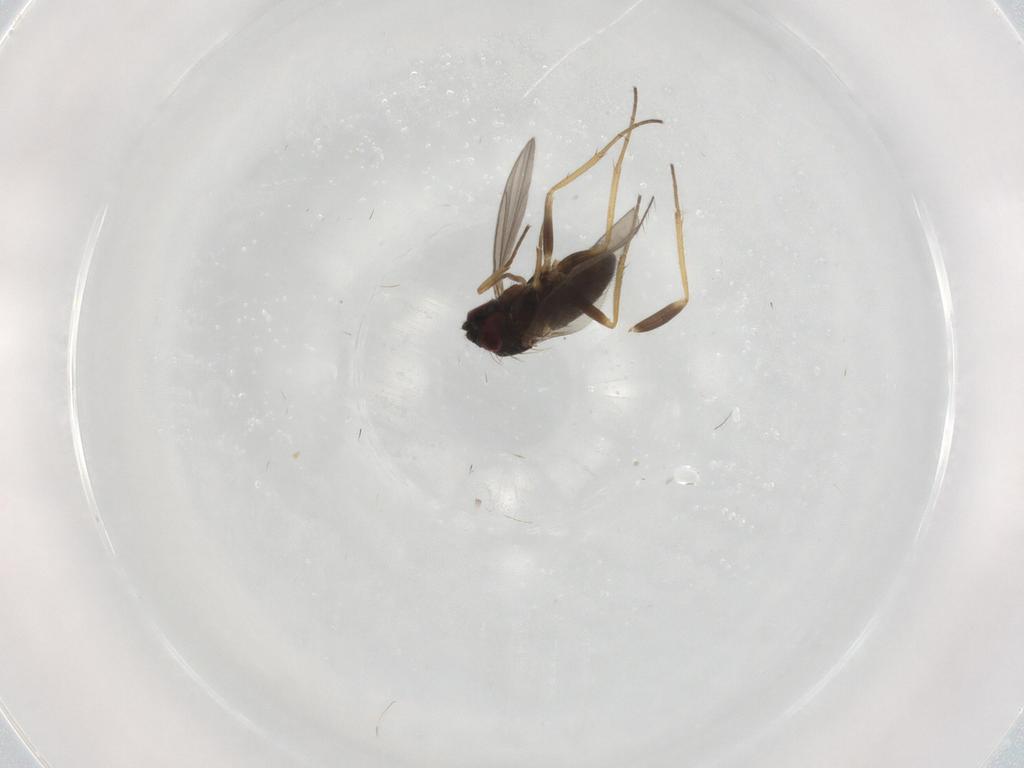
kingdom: Animalia
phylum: Arthropoda
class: Insecta
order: Diptera
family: Dolichopodidae
